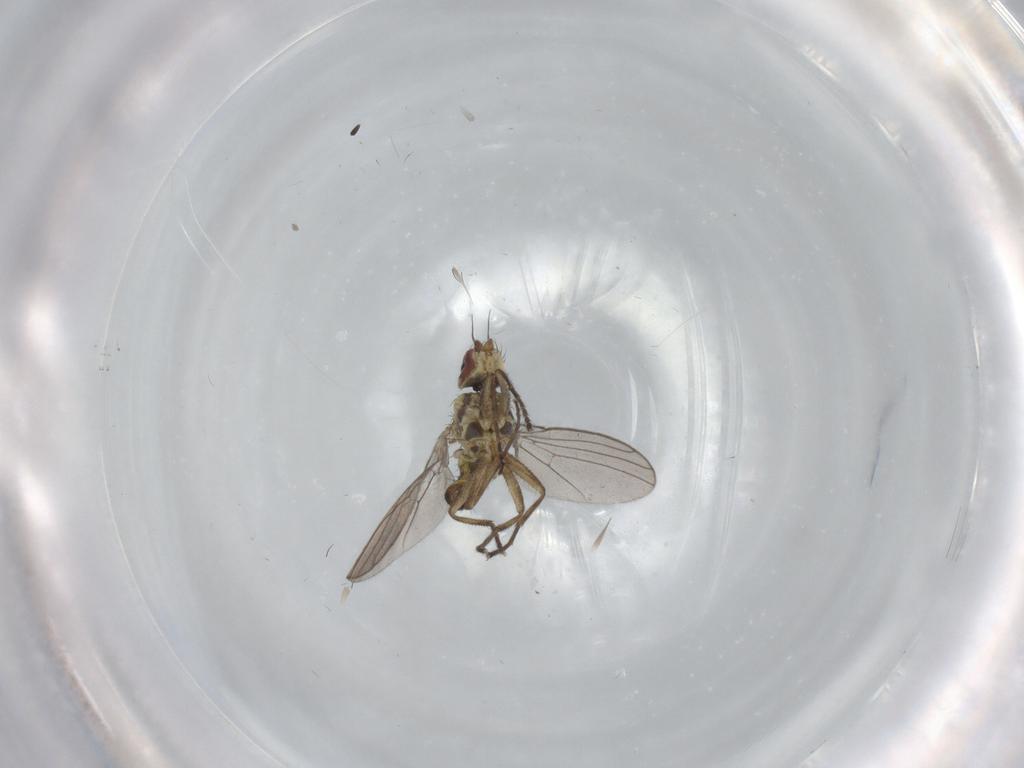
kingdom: Animalia
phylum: Arthropoda
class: Insecta
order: Diptera
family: Agromyzidae
